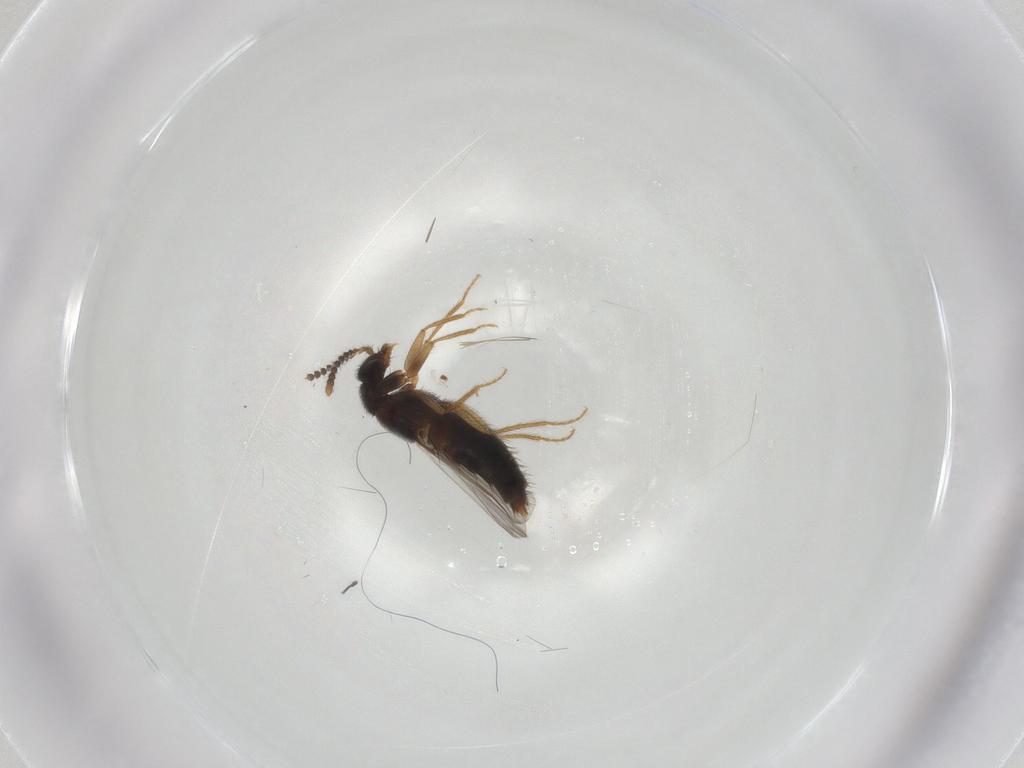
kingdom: Animalia
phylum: Arthropoda
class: Insecta
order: Coleoptera
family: Staphylinidae
